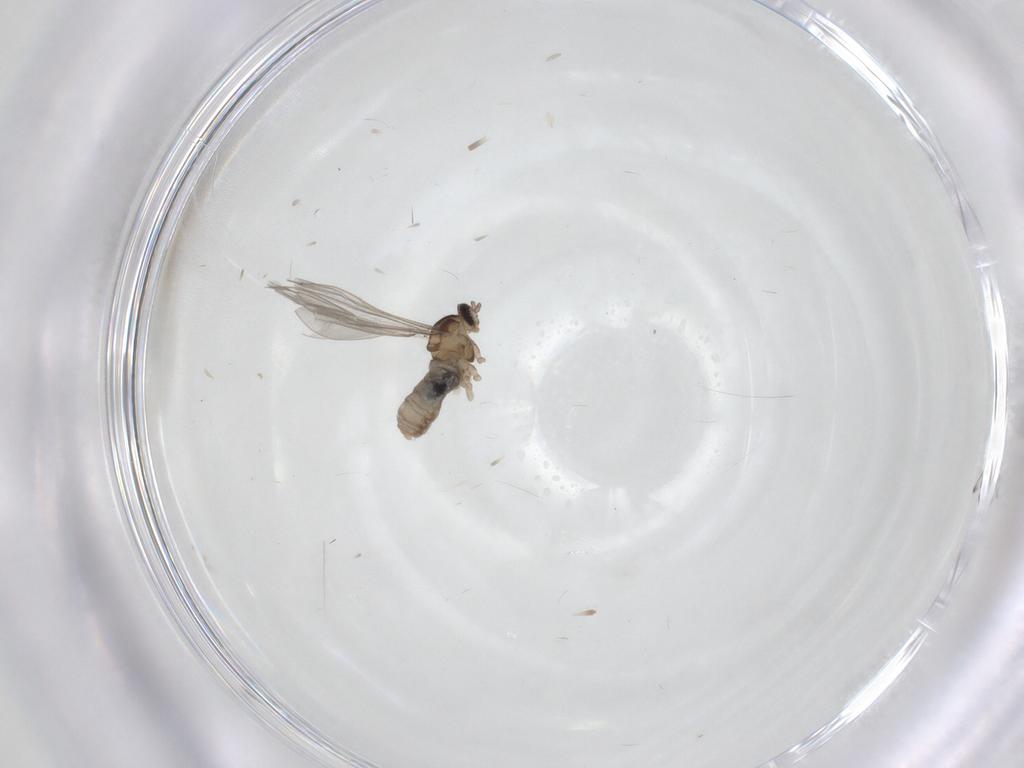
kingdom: Animalia
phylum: Arthropoda
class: Insecta
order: Diptera
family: Cecidomyiidae
